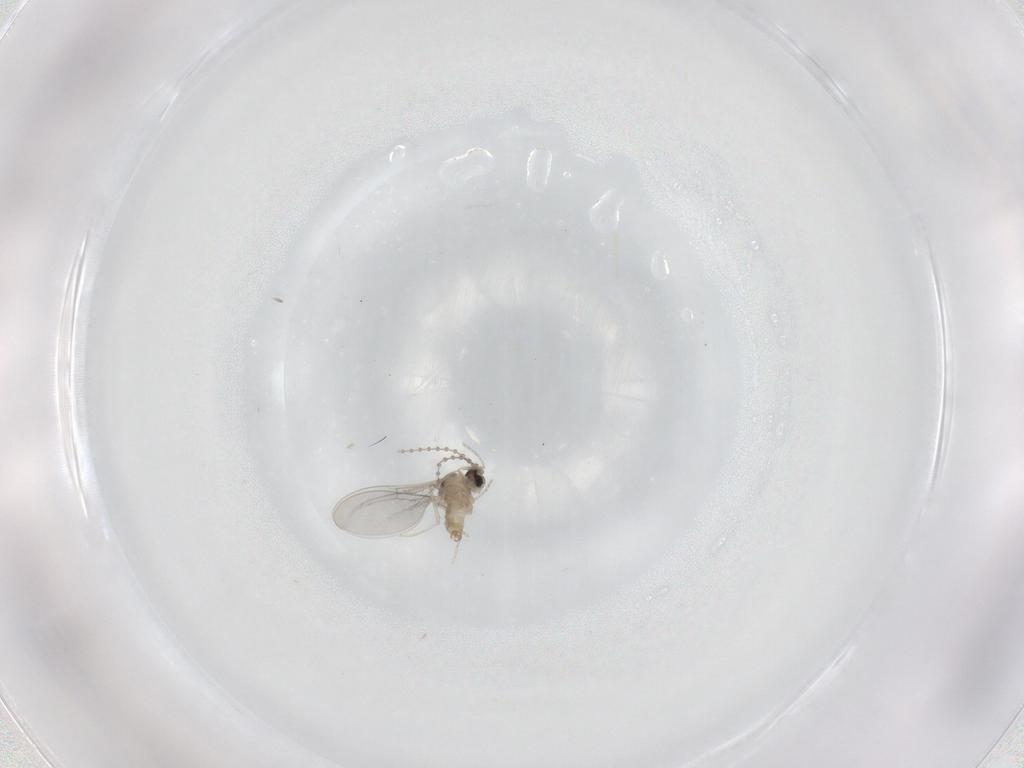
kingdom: Animalia
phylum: Arthropoda
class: Insecta
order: Diptera
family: Cecidomyiidae
